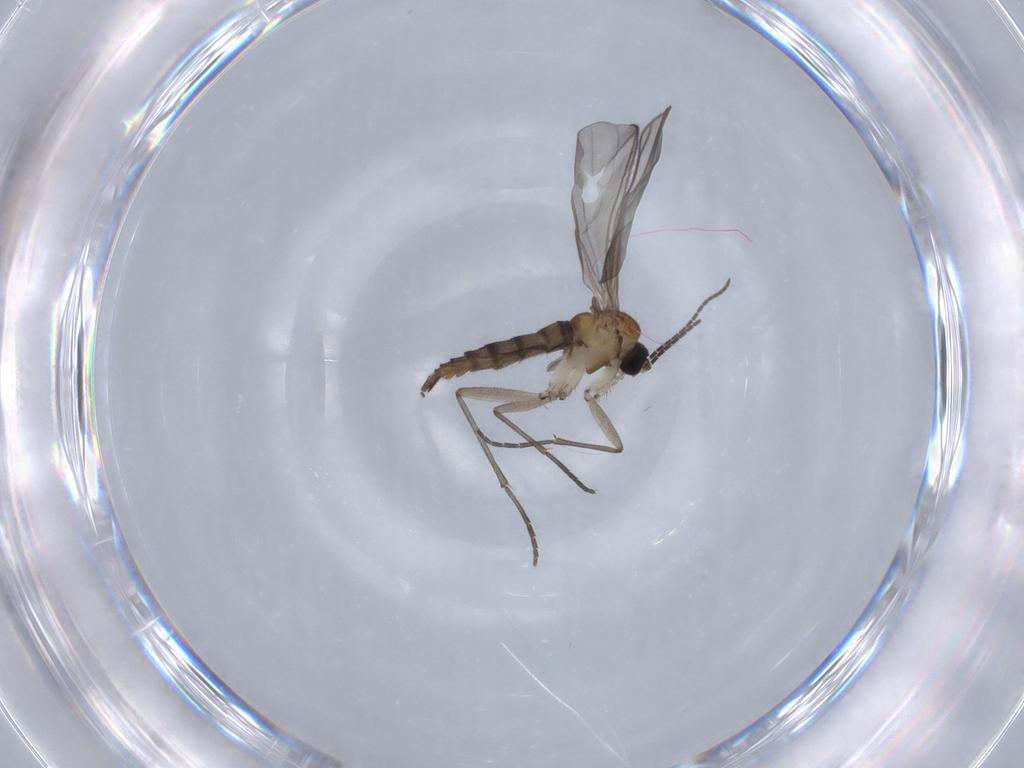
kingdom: Animalia
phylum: Arthropoda
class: Insecta
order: Diptera
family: Sciaridae
